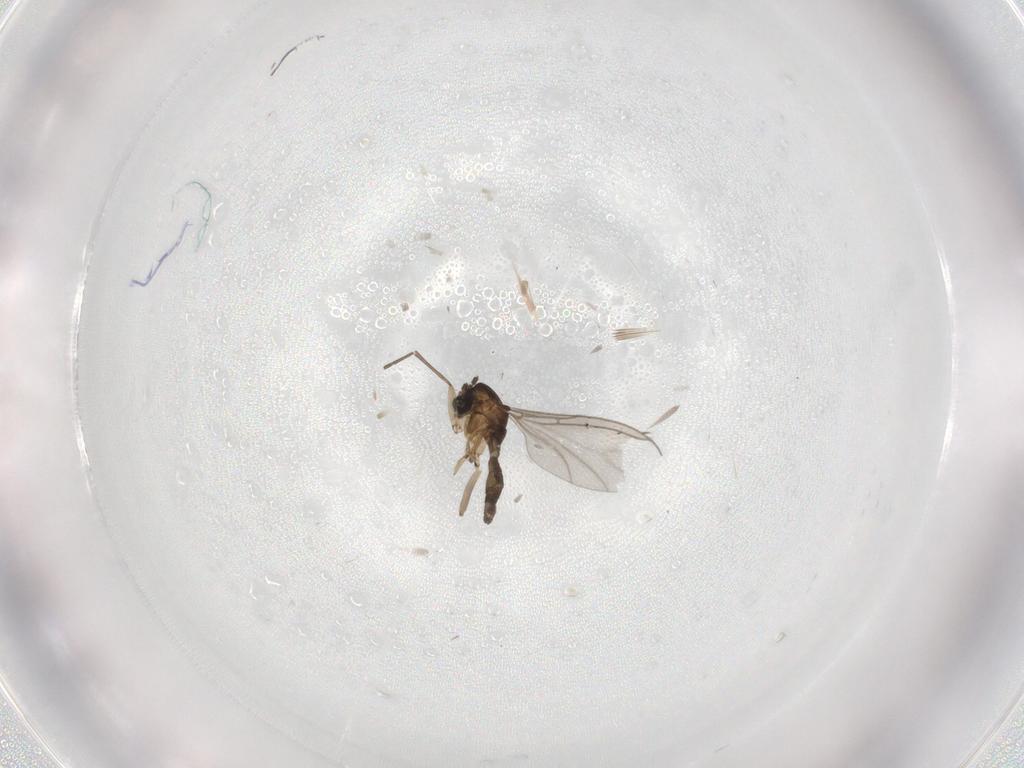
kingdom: Animalia
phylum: Arthropoda
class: Insecta
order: Diptera
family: Sciaridae
